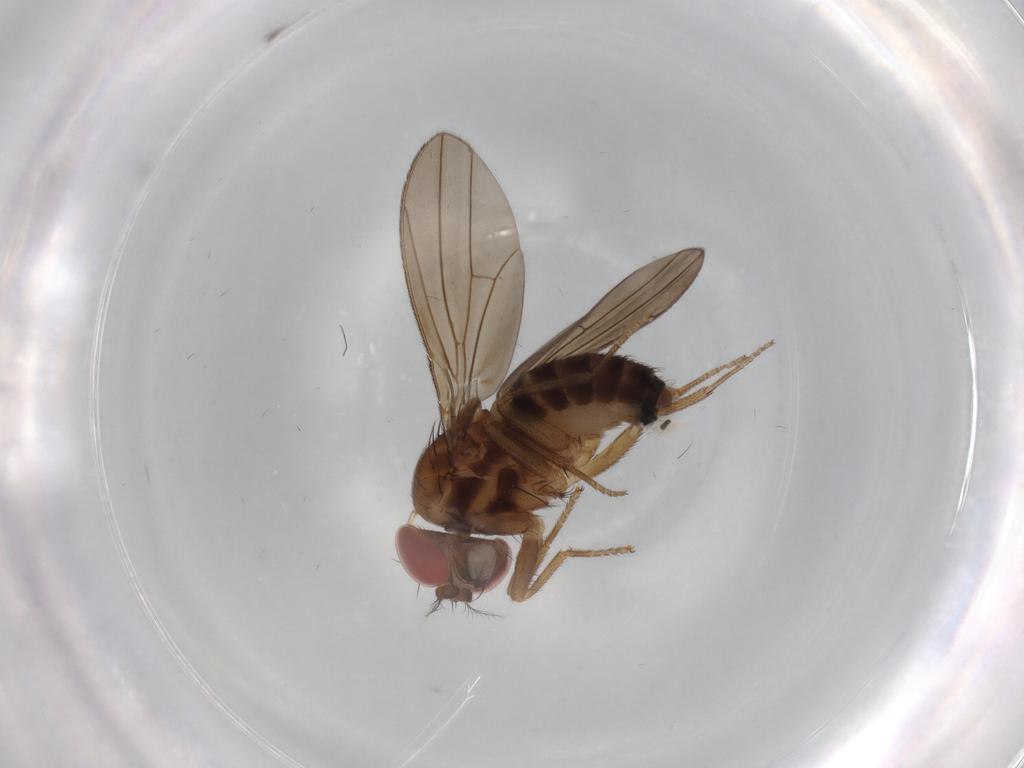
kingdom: Animalia
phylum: Arthropoda
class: Insecta
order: Diptera
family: Drosophilidae
